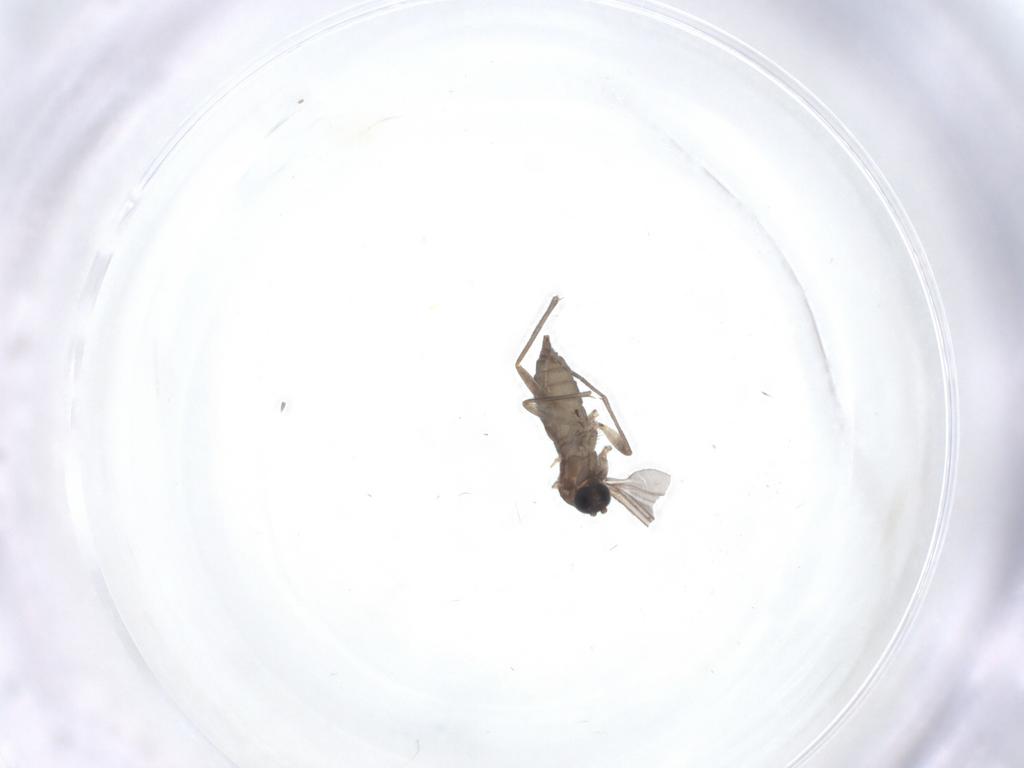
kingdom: Animalia
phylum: Arthropoda
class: Insecta
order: Diptera
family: Sciaridae
